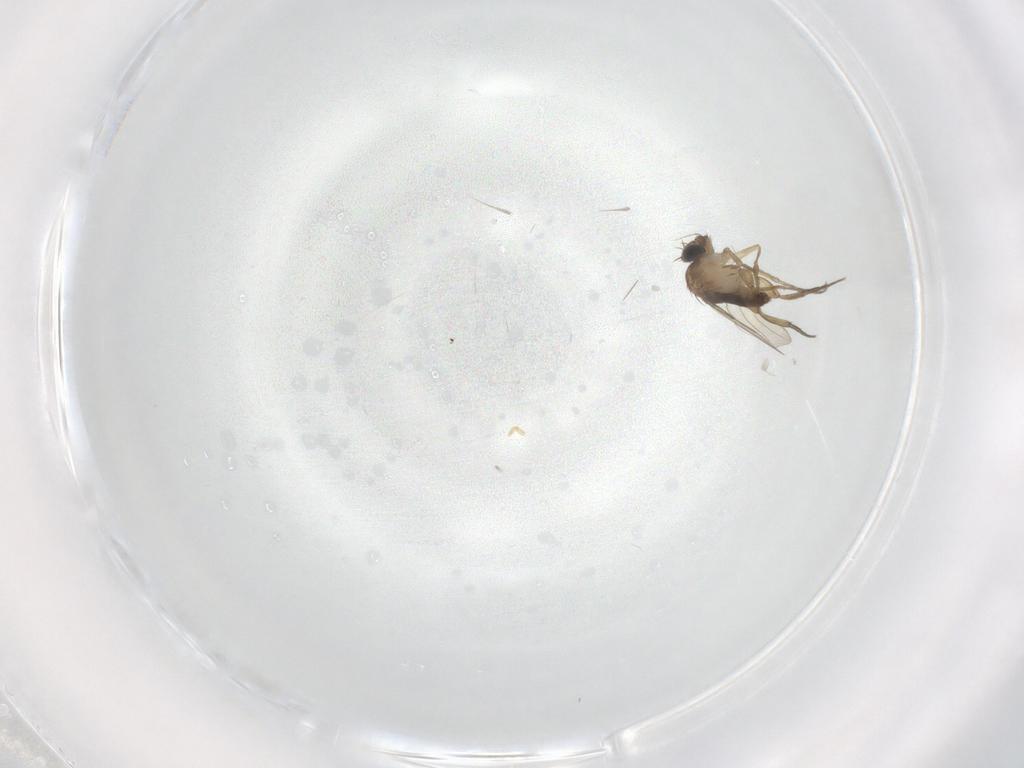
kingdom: Animalia
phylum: Arthropoda
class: Insecta
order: Diptera
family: Phoridae
